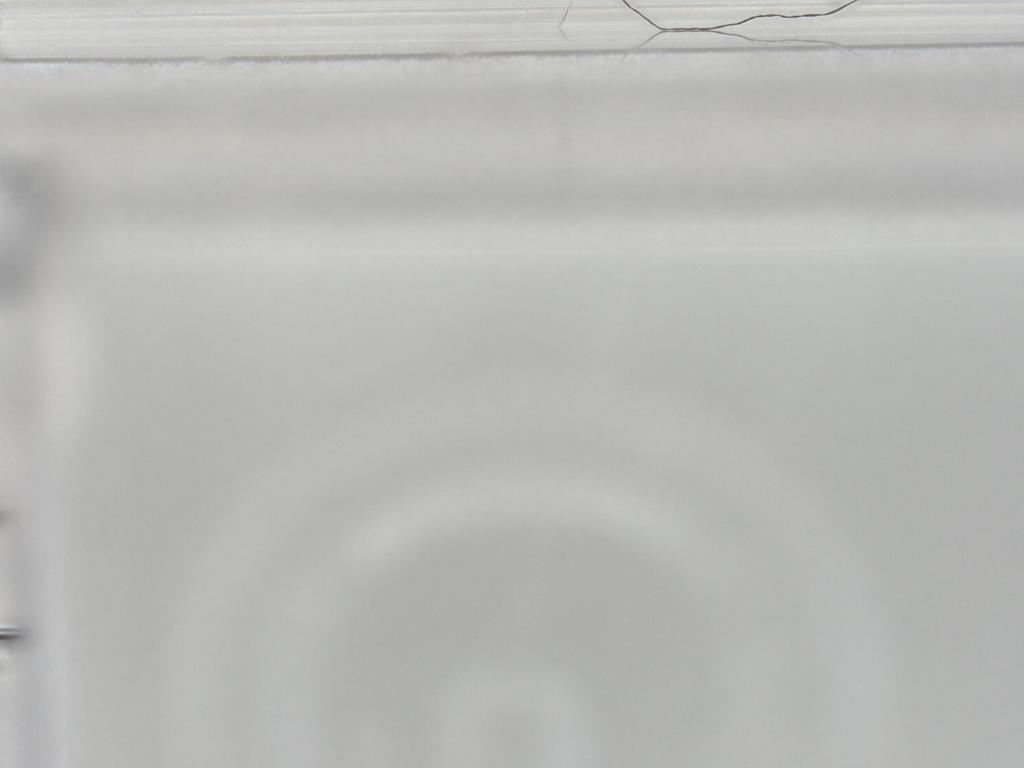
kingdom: Animalia
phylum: Arthropoda
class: Insecta
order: Diptera
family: Phoridae
